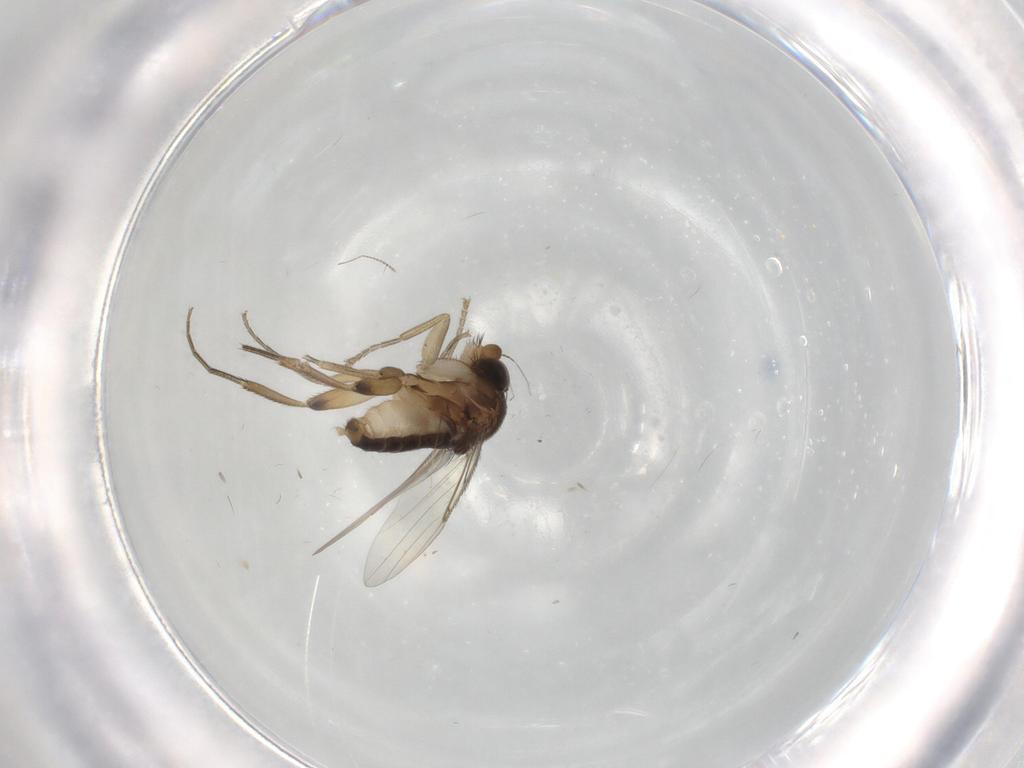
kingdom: Animalia
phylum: Arthropoda
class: Insecta
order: Diptera
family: Chironomidae
